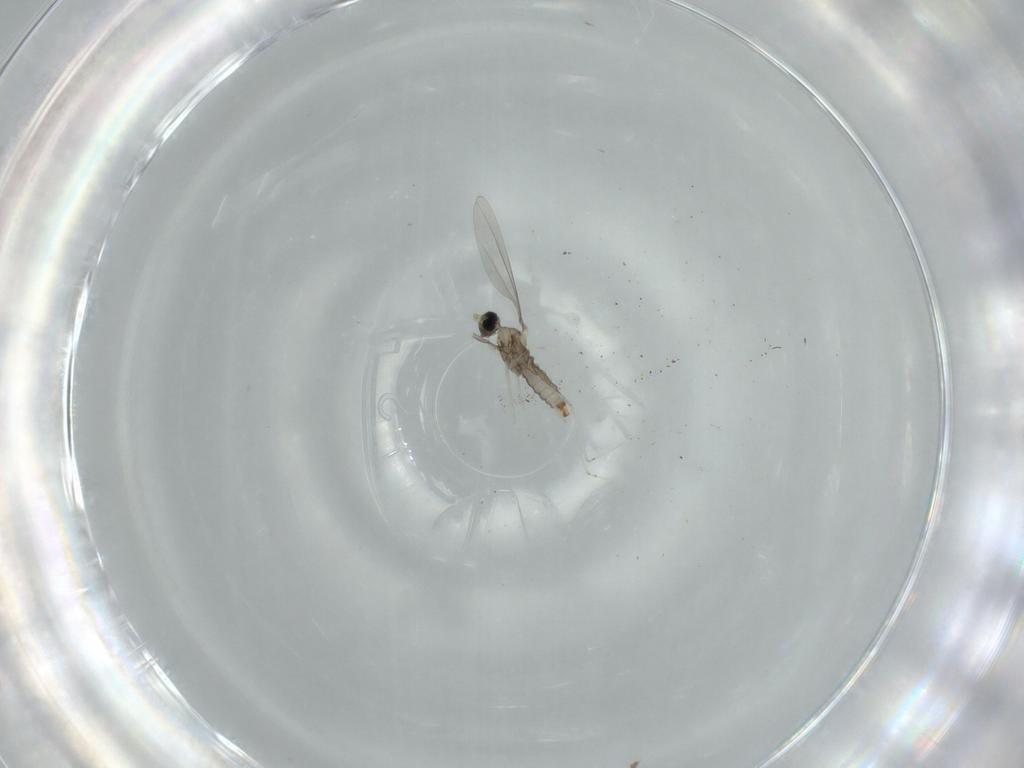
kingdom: Animalia
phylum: Arthropoda
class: Insecta
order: Diptera
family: Cecidomyiidae
